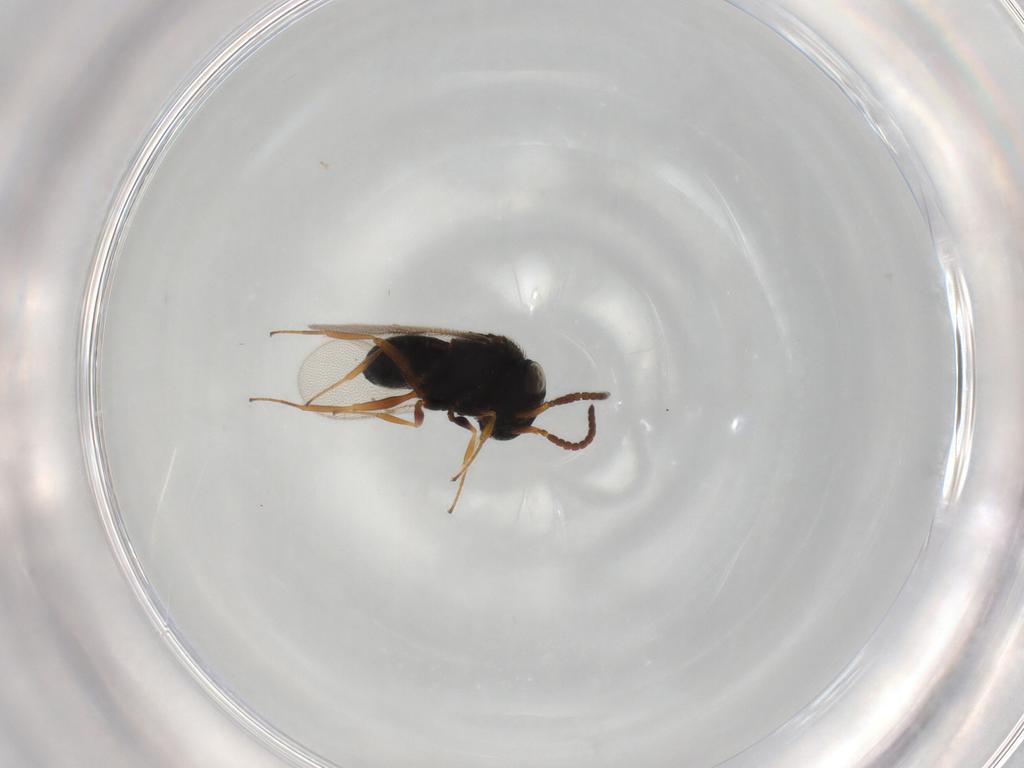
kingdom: Animalia
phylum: Arthropoda
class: Insecta
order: Hymenoptera
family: Scelionidae
